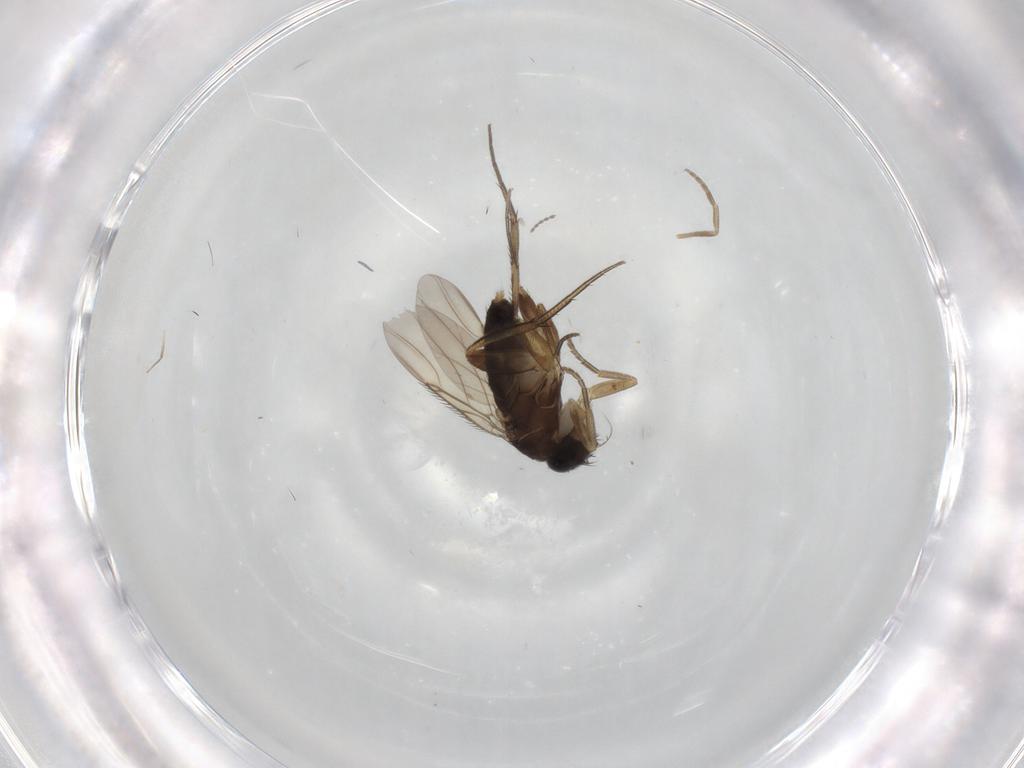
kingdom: Animalia
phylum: Arthropoda
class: Insecta
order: Diptera
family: Phoridae
